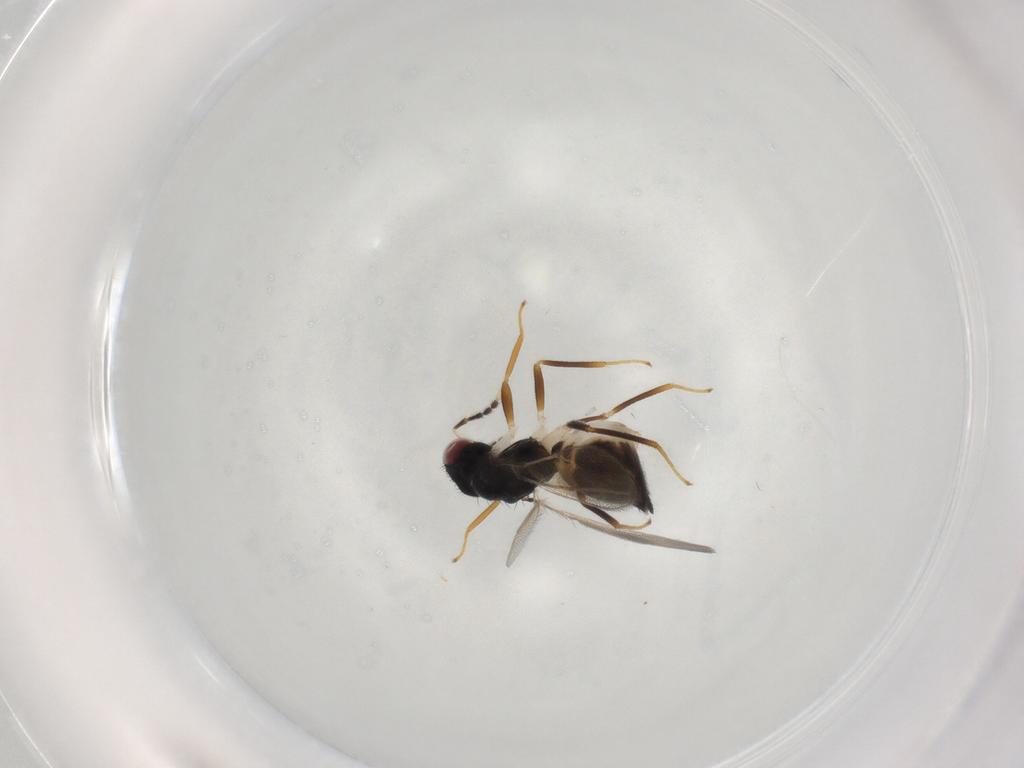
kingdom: Animalia
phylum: Arthropoda
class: Insecta
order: Hymenoptera
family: Eulophidae
